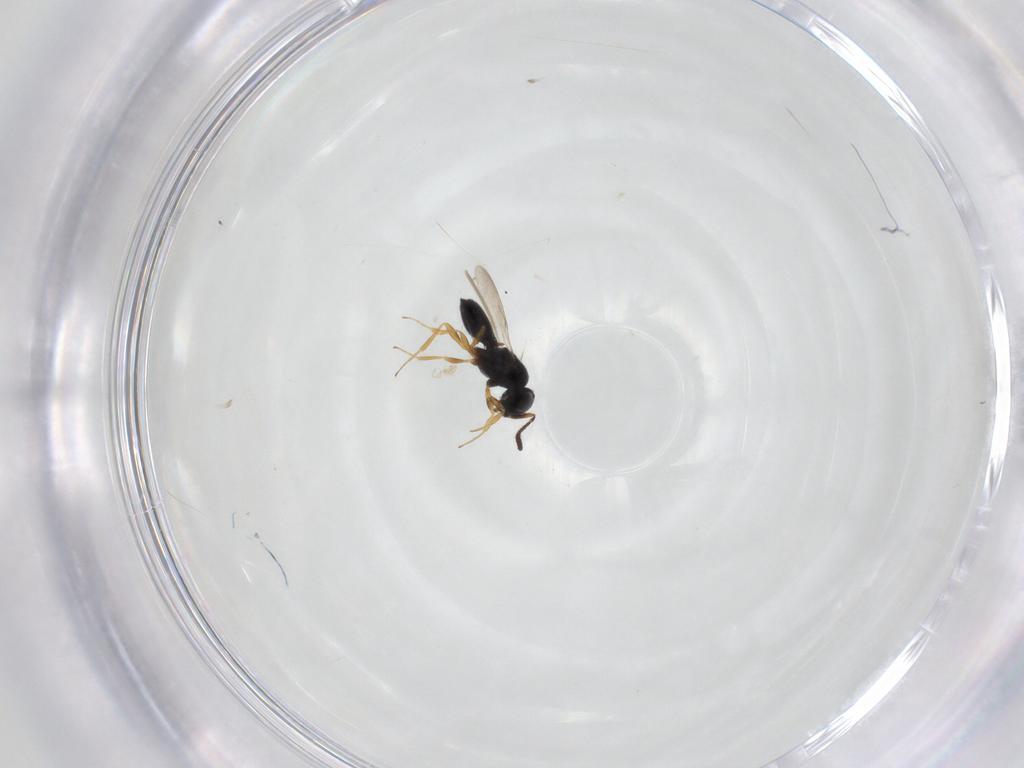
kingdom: Animalia
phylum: Arthropoda
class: Insecta
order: Hymenoptera
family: Scelionidae
